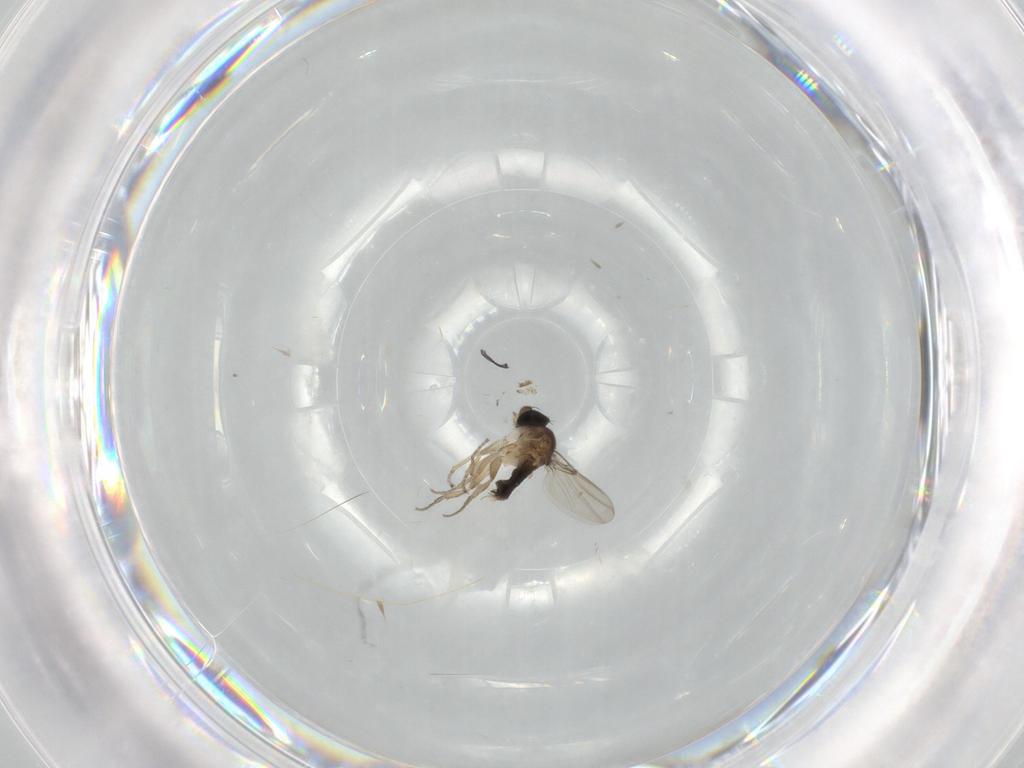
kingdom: Animalia
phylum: Arthropoda
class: Insecta
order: Diptera
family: Phoridae
